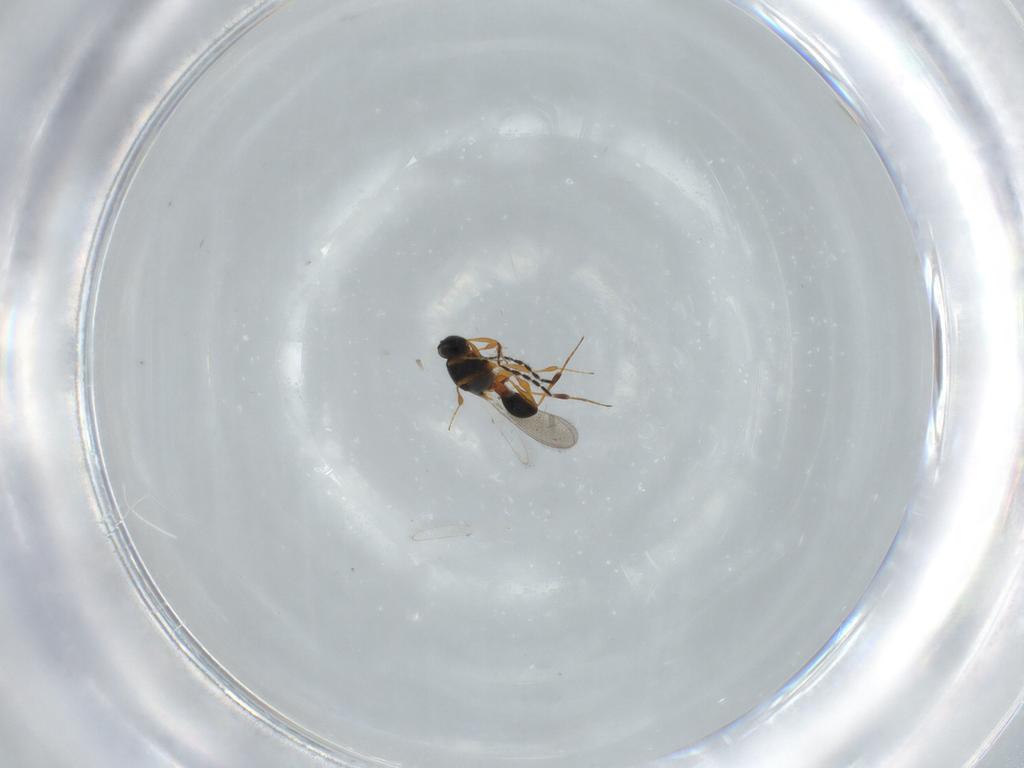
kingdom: Animalia
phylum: Arthropoda
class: Insecta
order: Hymenoptera
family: Platygastridae
